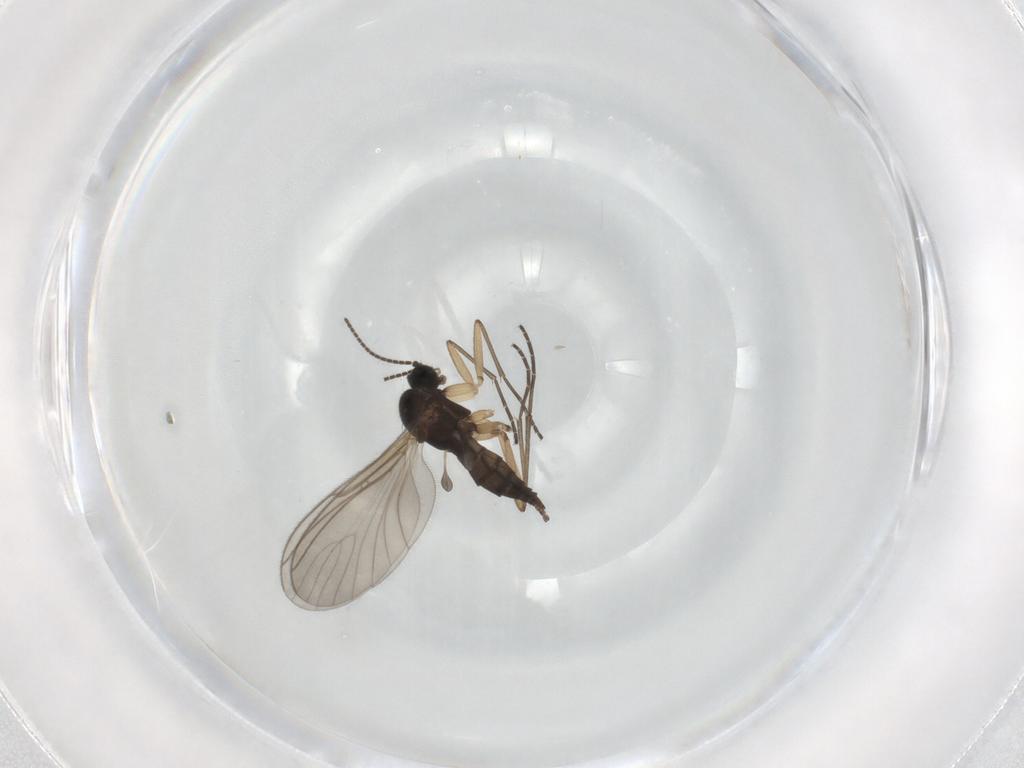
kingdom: Animalia
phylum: Arthropoda
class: Insecta
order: Diptera
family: Sciaridae
